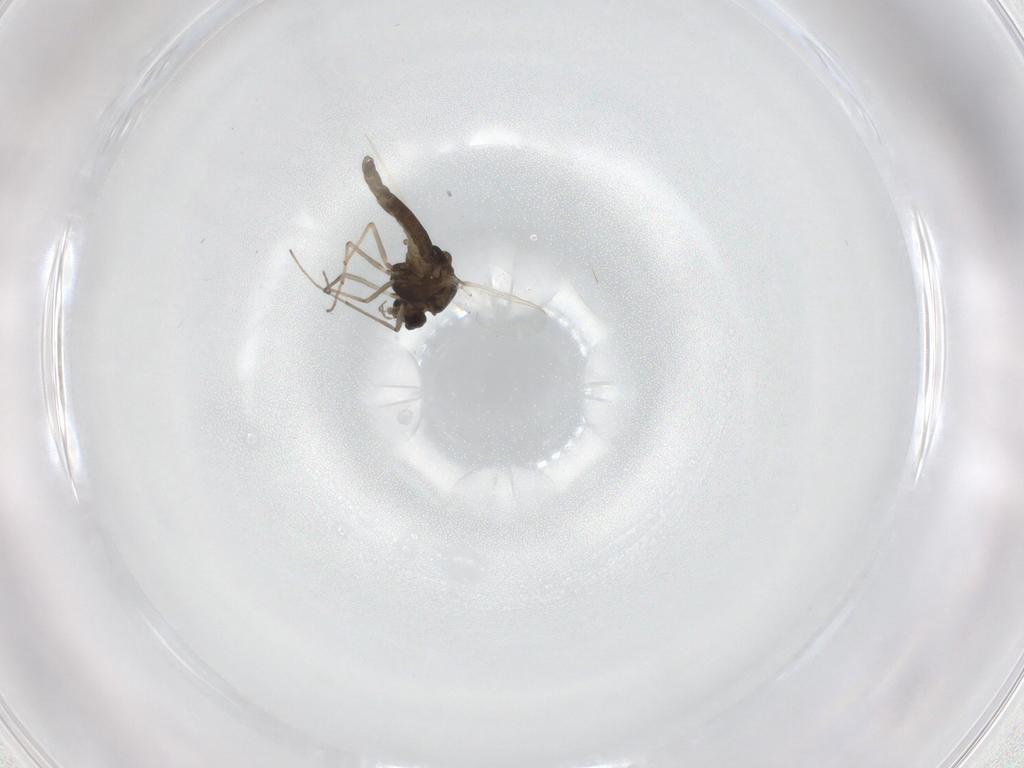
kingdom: Animalia
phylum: Arthropoda
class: Insecta
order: Diptera
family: Chironomidae
